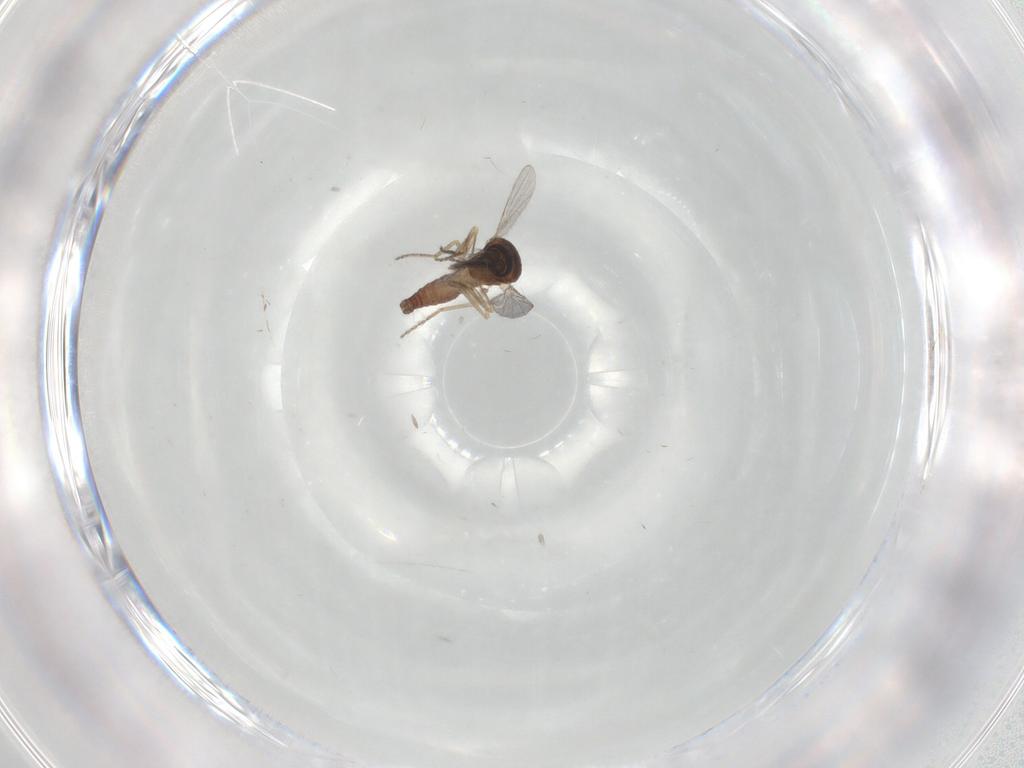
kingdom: Animalia
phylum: Arthropoda
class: Insecta
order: Diptera
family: Ceratopogonidae
